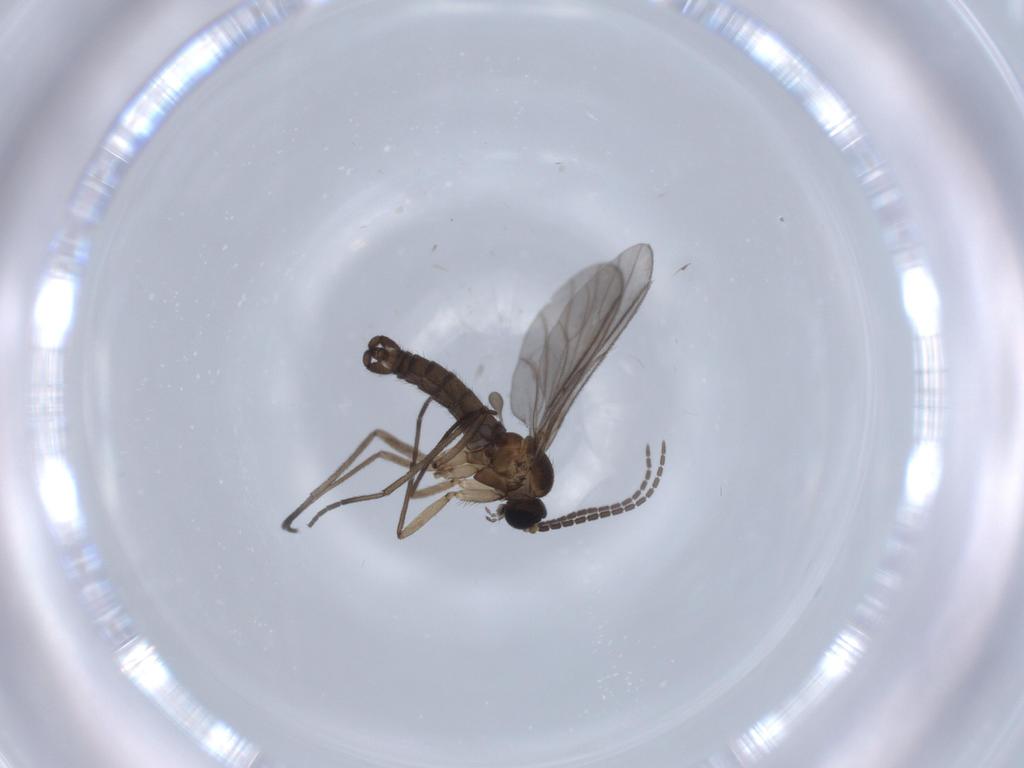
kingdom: Animalia
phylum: Arthropoda
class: Insecta
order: Diptera
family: Sciaridae
